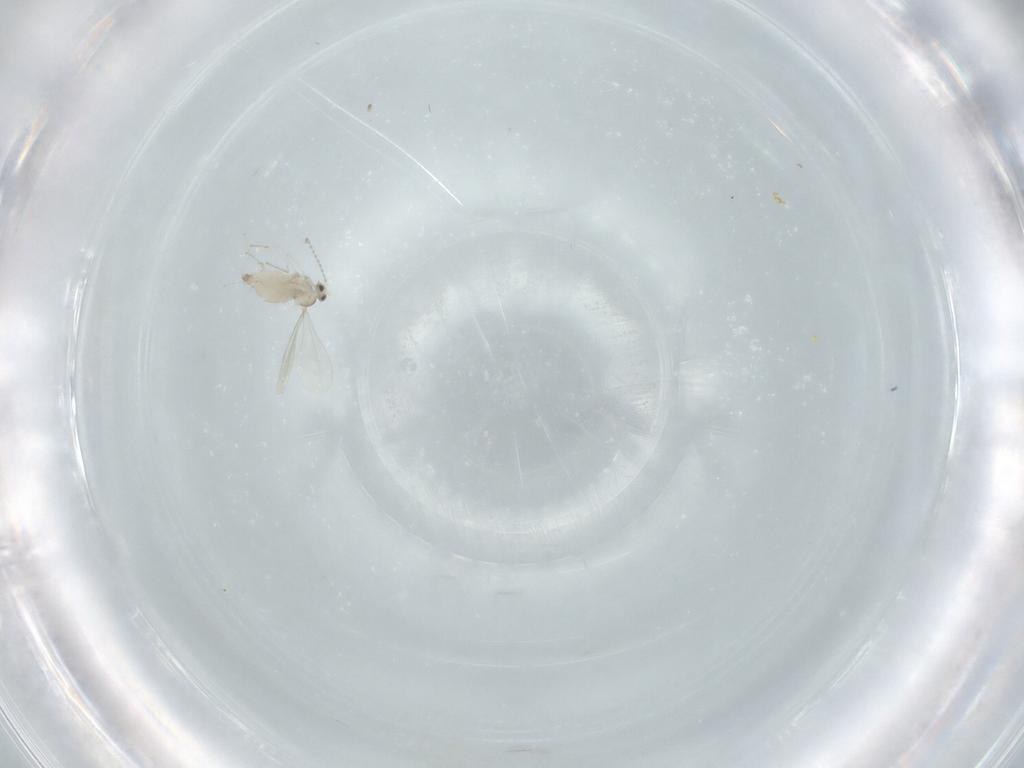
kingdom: Animalia
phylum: Arthropoda
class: Insecta
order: Diptera
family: Cecidomyiidae
